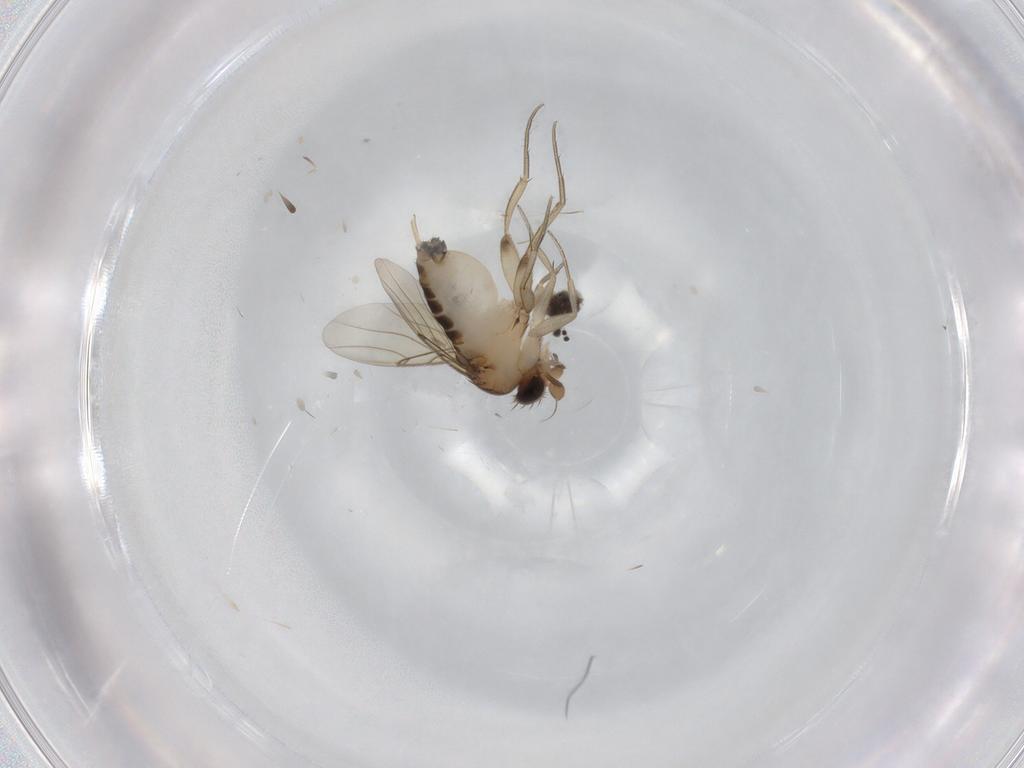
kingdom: Animalia
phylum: Arthropoda
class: Insecta
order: Diptera
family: Phoridae
